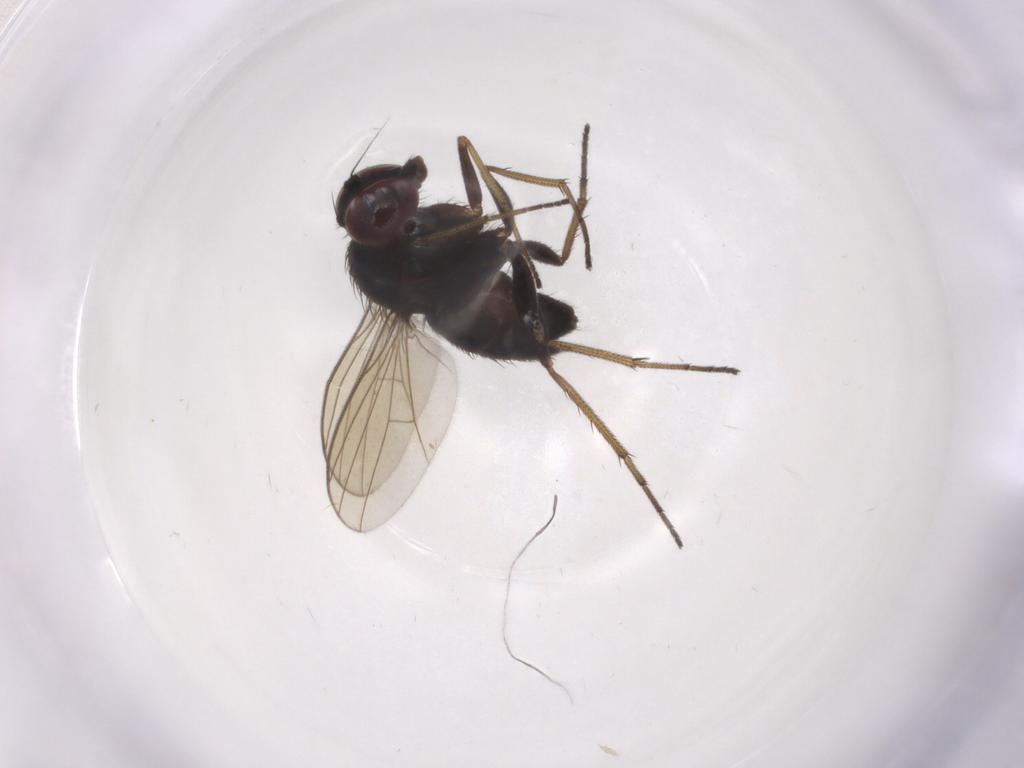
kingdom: Animalia
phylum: Arthropoda
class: Insecta
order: Diptera
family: Dolichopodidae
